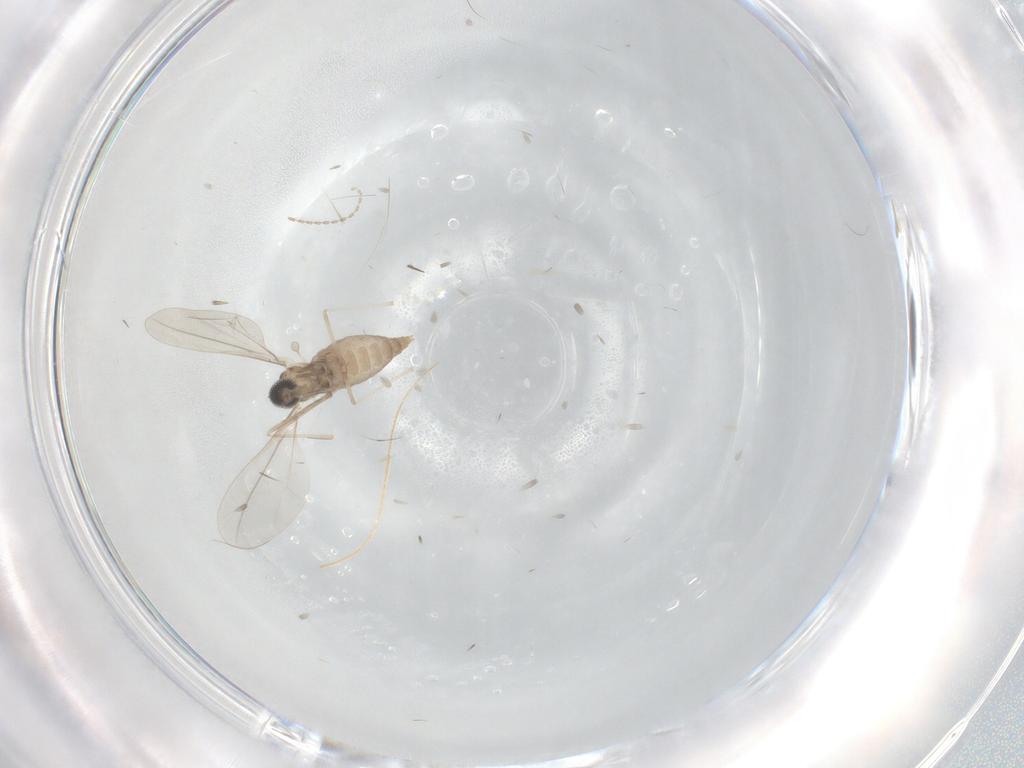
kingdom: Animalia
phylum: Arthropoda
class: Insecta
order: Diptera
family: Cecidomyiidae
